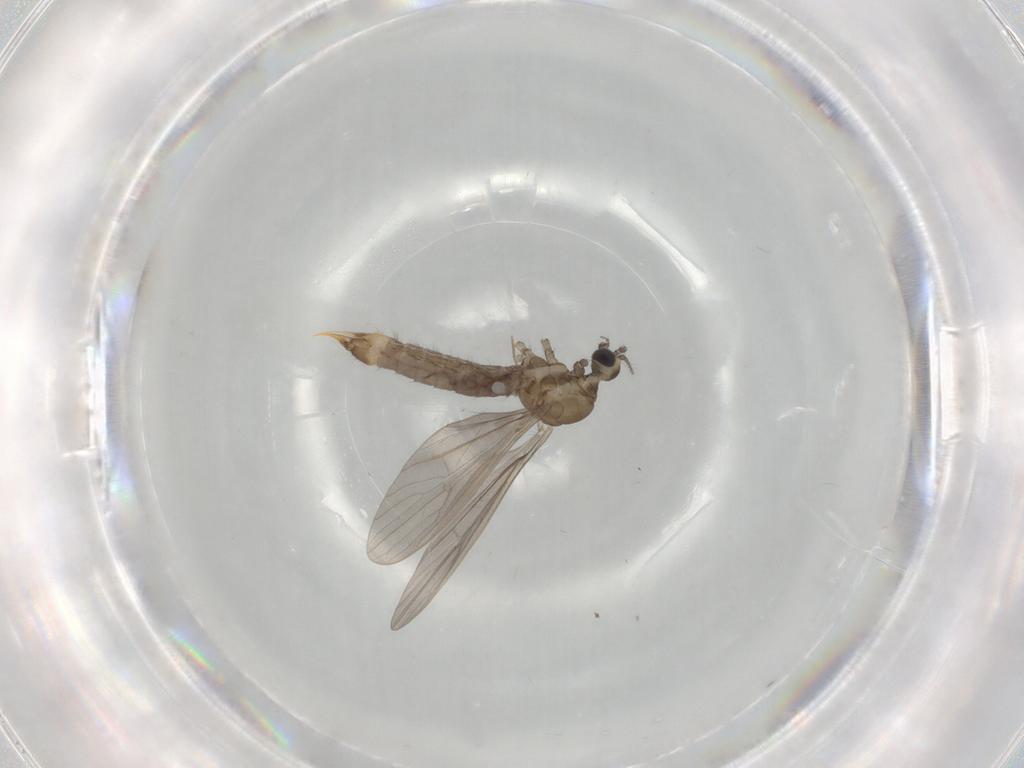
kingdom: Animalia
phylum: Arthropoda
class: Insecta
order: Diptera
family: Limoniidae
